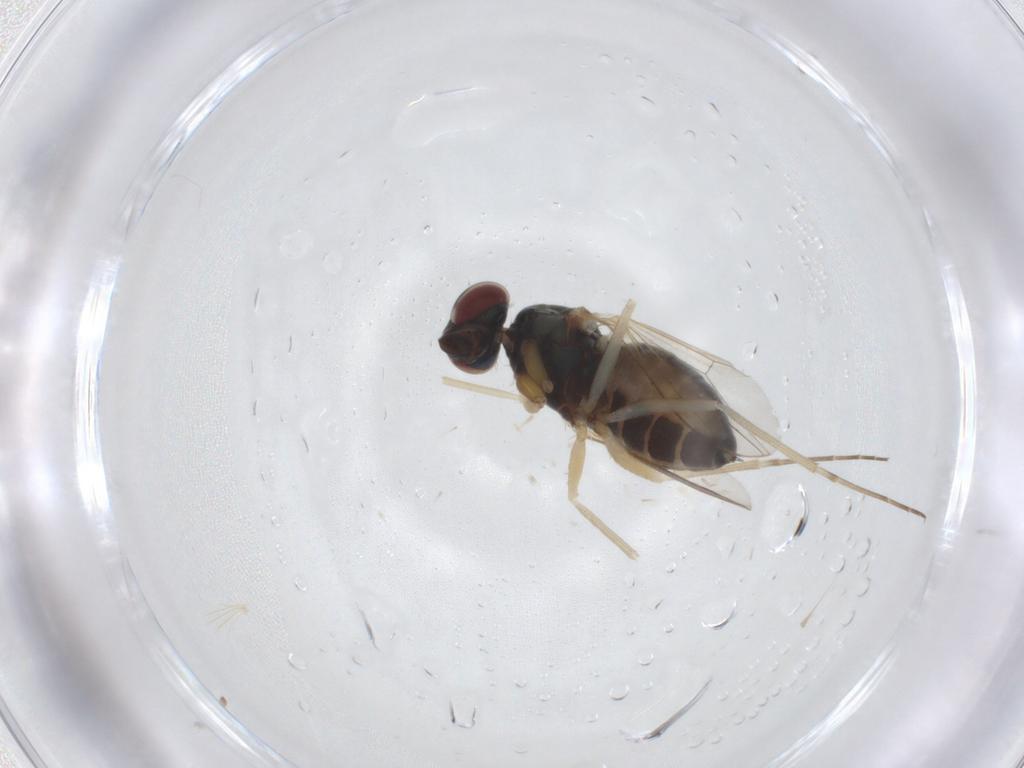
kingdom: Animalia
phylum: Arthropoda
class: Insecta
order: Diptera
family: Dolichopodidae
